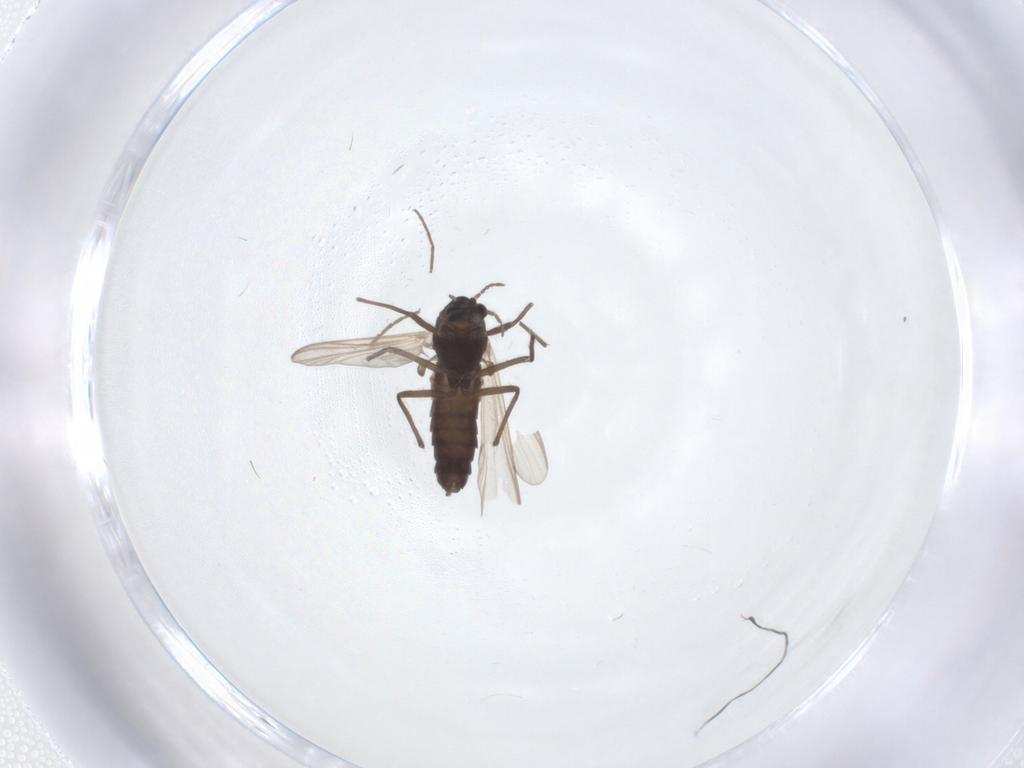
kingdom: Animalia
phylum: Arthropoda
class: Insecta
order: Diptera
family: Chironomidae
